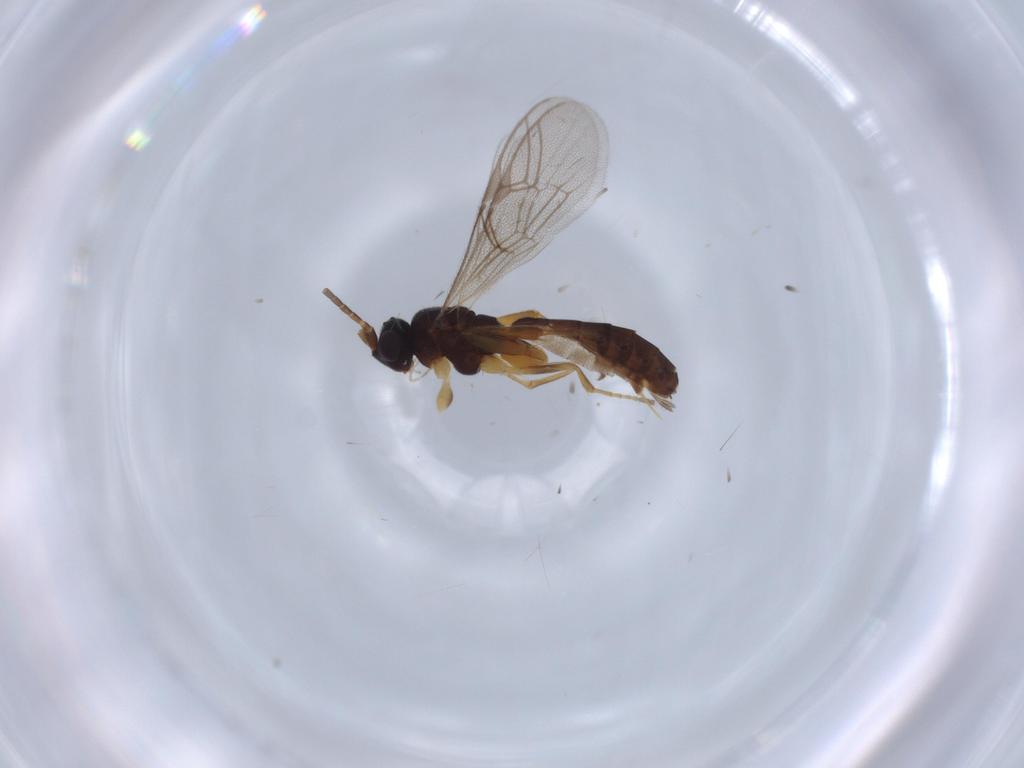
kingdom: Animalia
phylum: Arthropoda
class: Insecta
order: Hymenoptera
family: Ichneumonidae
